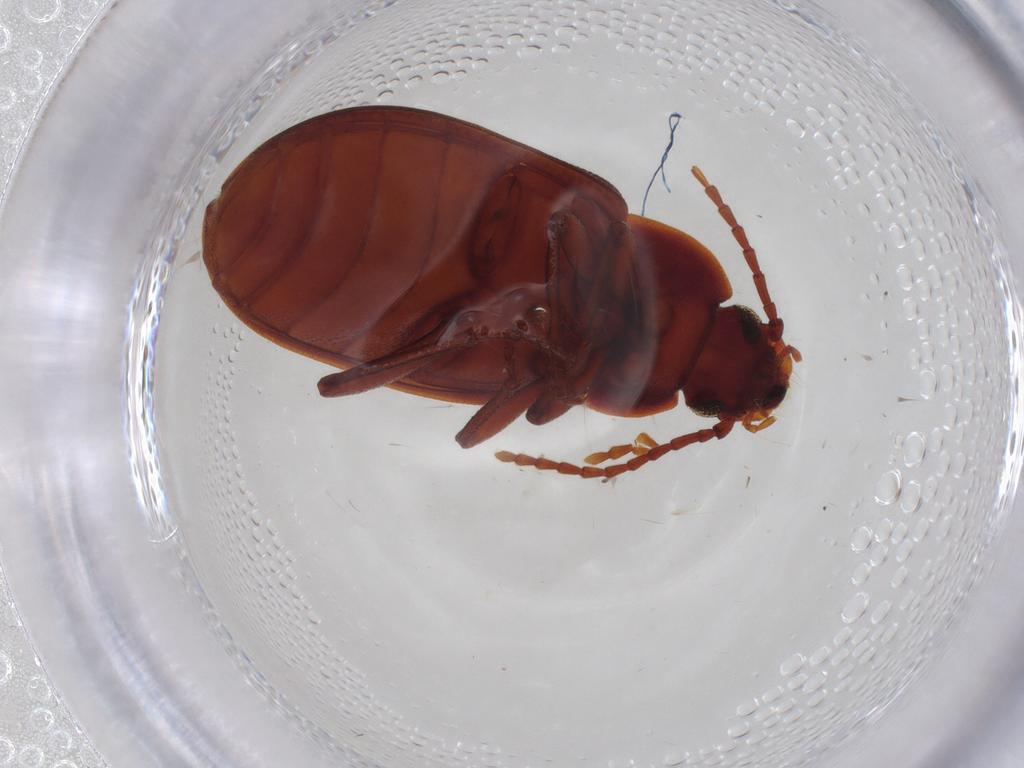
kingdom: Animalia
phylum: Arthropoda
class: Insecta
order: Coleoptera
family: Tenebrionidae
